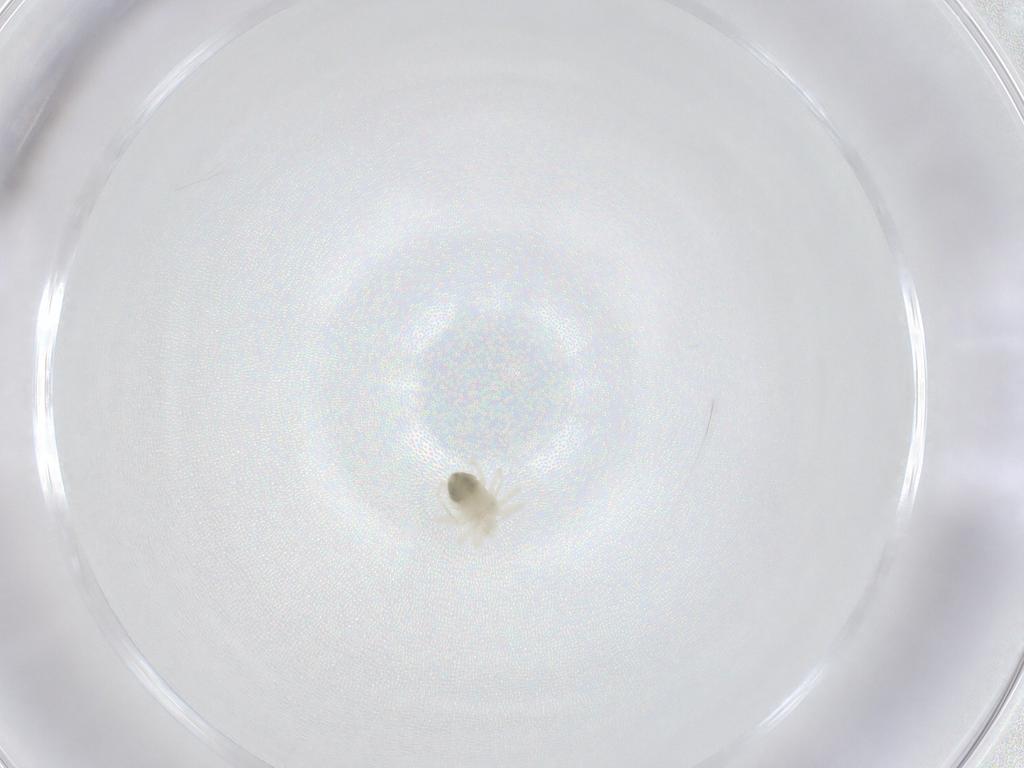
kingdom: Animalia
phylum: Arthropoda
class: Arachnida
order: Trombidiformes
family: Anystidae
